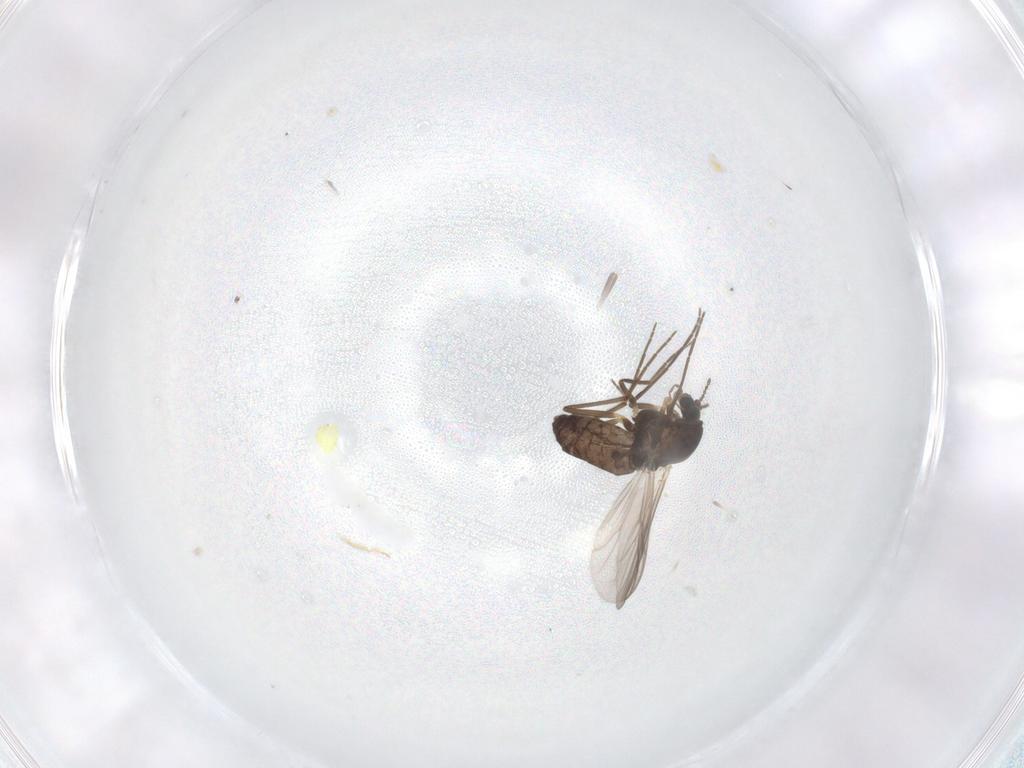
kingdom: Animalia
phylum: Arthropoda
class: Insecta
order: Diptera
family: Chironomidae
